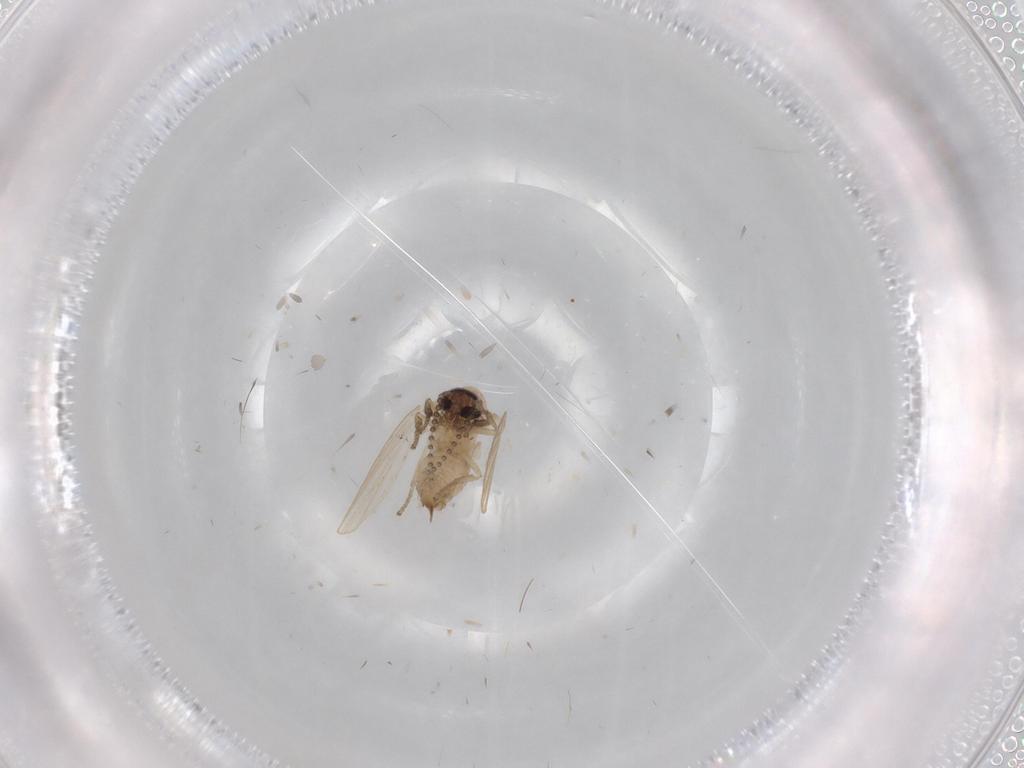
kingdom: Animalia
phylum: Arthropoda
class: Insecta
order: Diptera
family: Psychodidae
